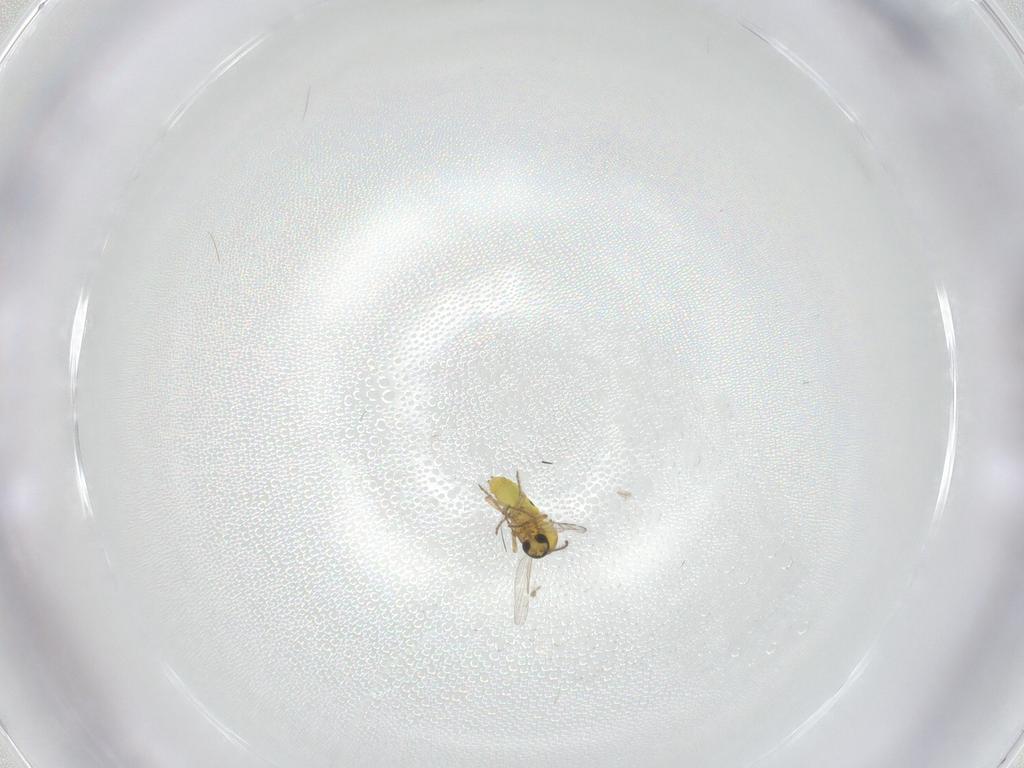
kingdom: Animalia
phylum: Arthropoda
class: Insecta
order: Diptera
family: Ceratopogonidae
